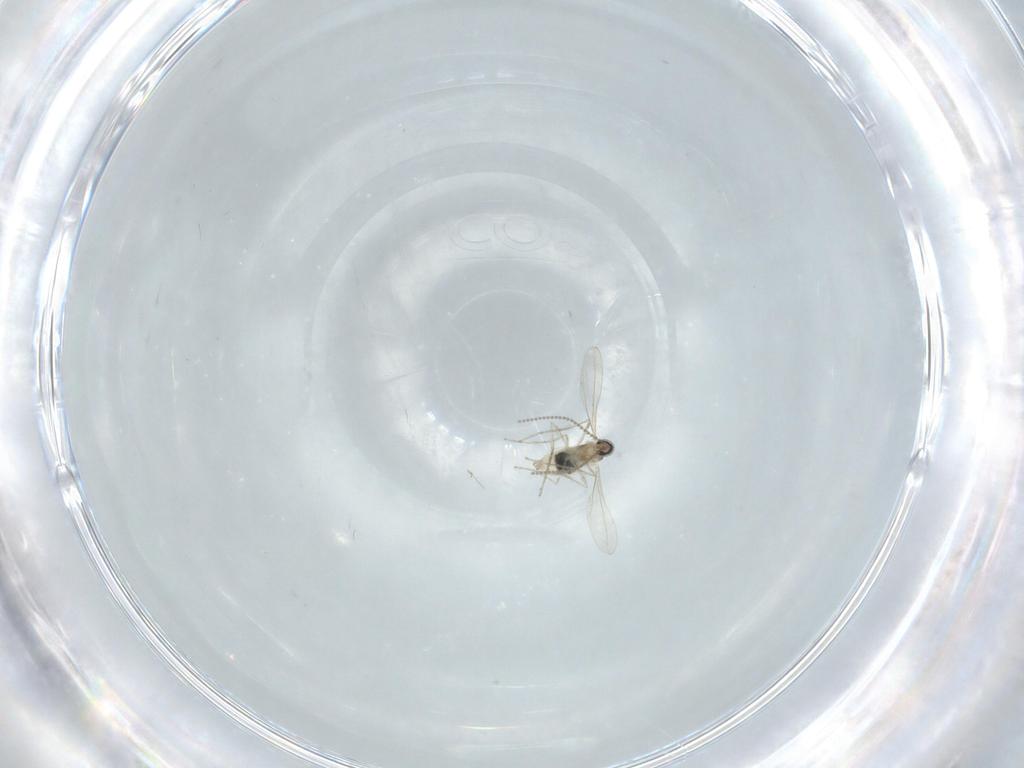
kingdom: Animalia
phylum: Arthropoda
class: Insecta
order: Diptera
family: Cecidomyiidae
